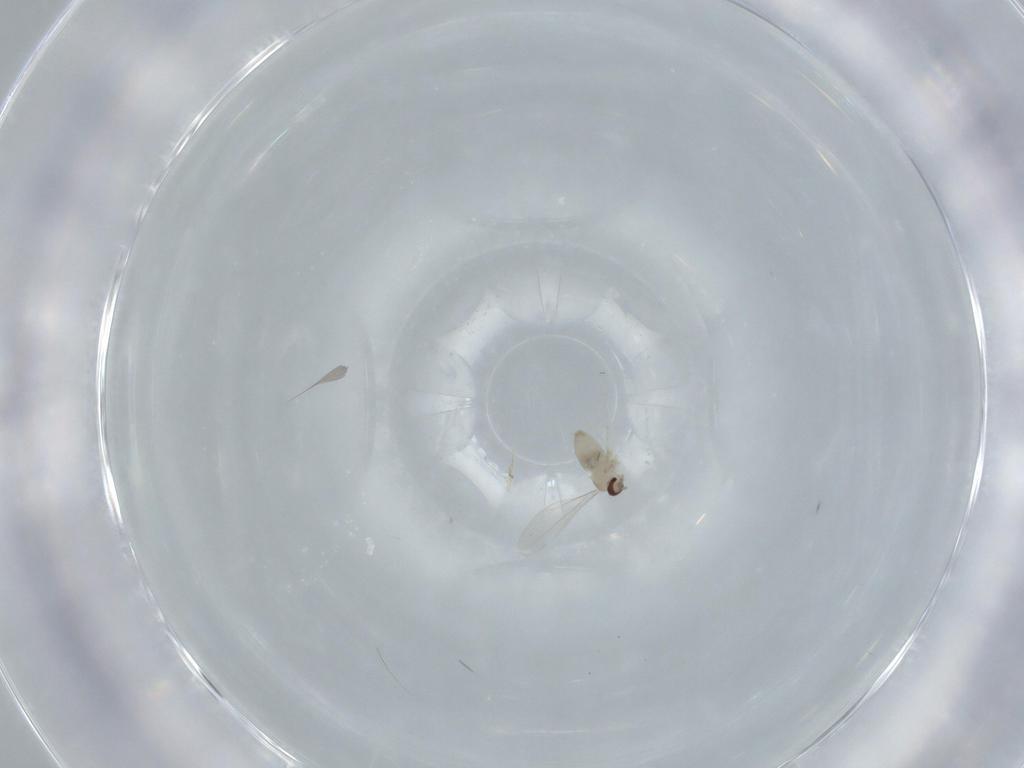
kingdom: Animalia
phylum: Arthropoda
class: Insecta
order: Diptera
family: Cecidomyiidae
